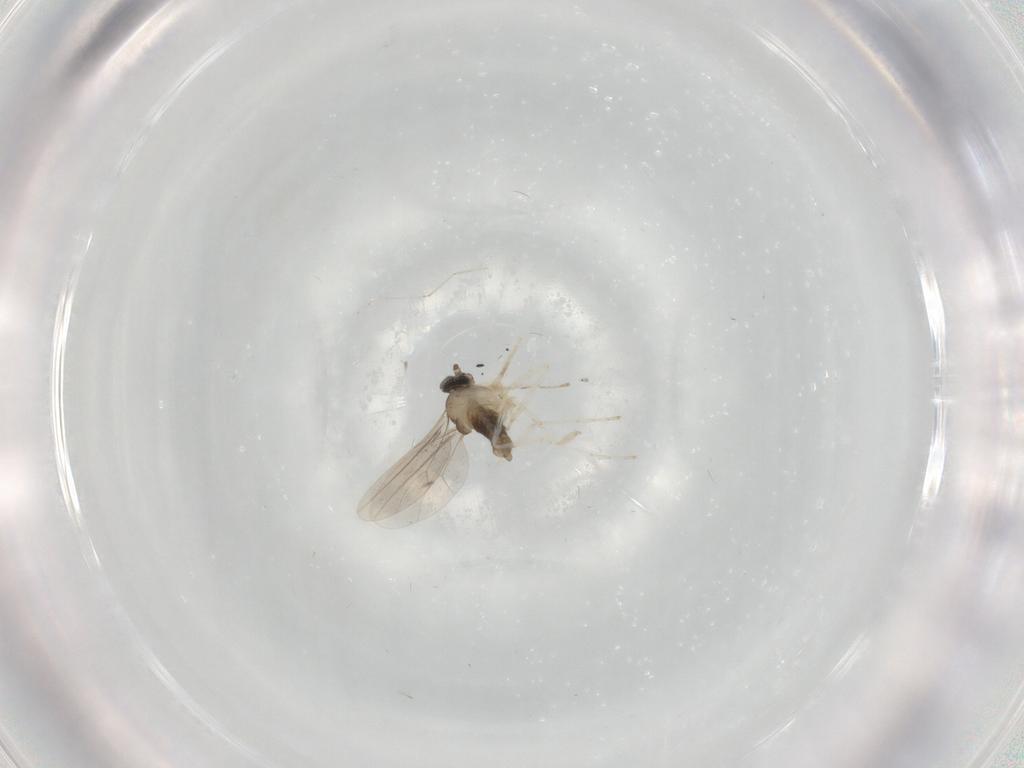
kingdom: Animalia
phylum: Arthropoda
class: Insecta
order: Diptera
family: Cecidomyiidae
